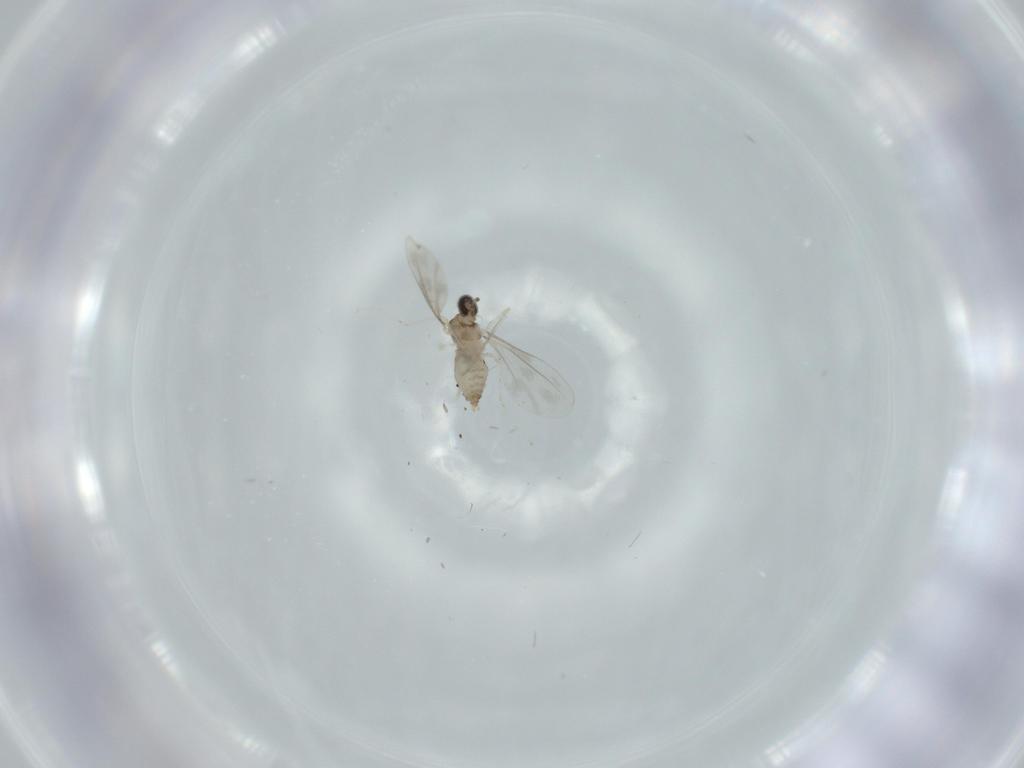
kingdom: Animalia
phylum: Arthropoda
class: Insecta
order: Diptera
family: Cecidomyiidae
